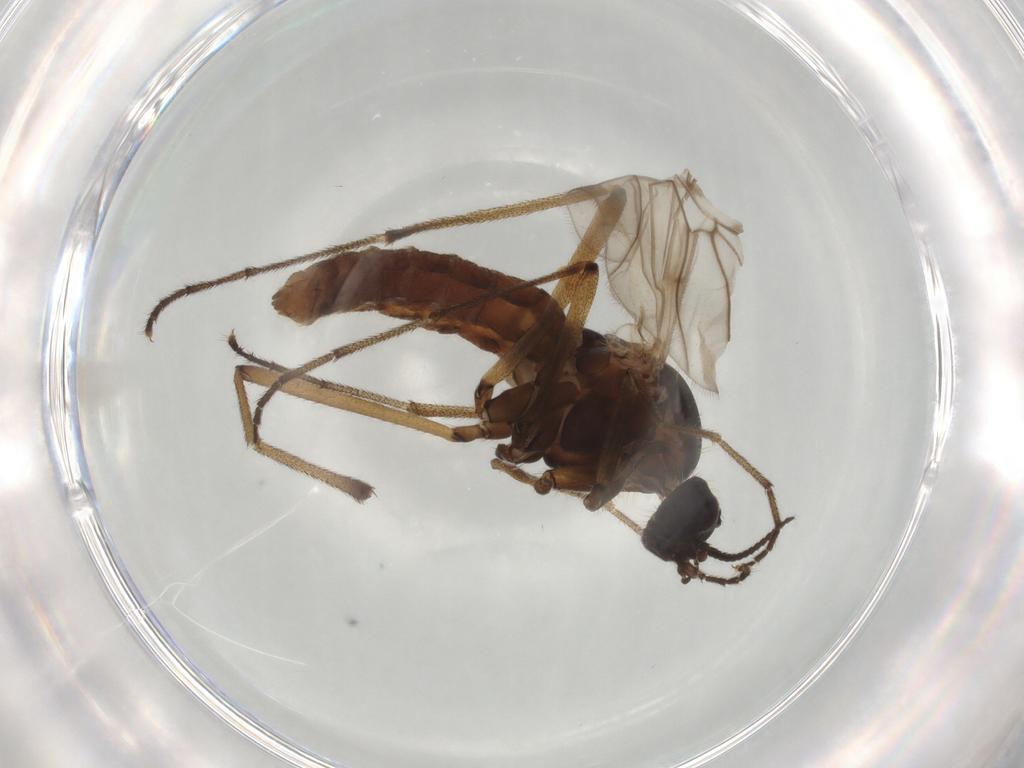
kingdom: Animalia
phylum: Arthropoda
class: Insecta
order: Diptera
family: Anisopodidae
